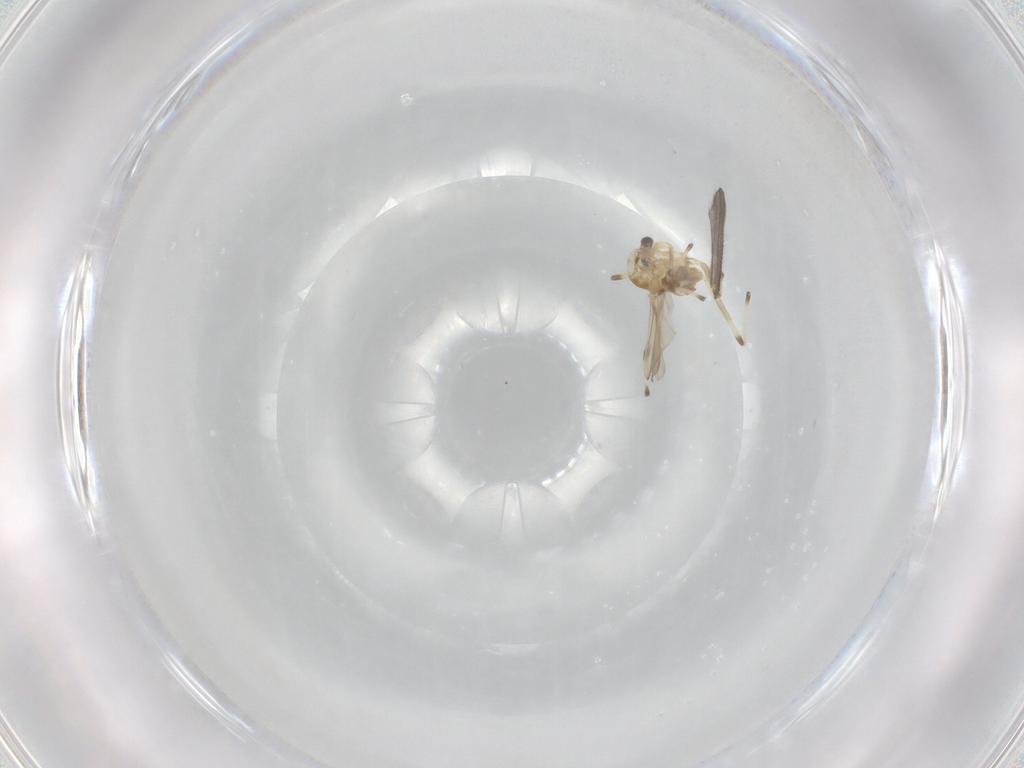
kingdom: Animalia
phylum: Arthropoda
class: Insecta
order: Diptera
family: Chironomidae
